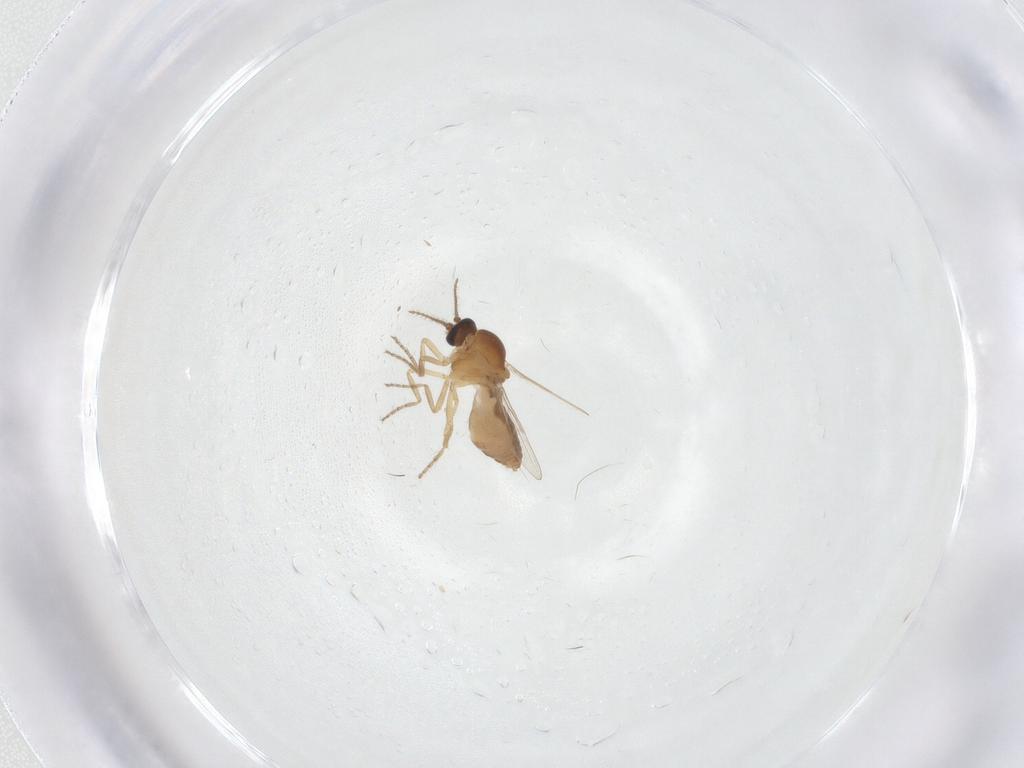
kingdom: Animalia
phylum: Arthropoda
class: Insecta
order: Diptera
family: Ceratopogonidae
